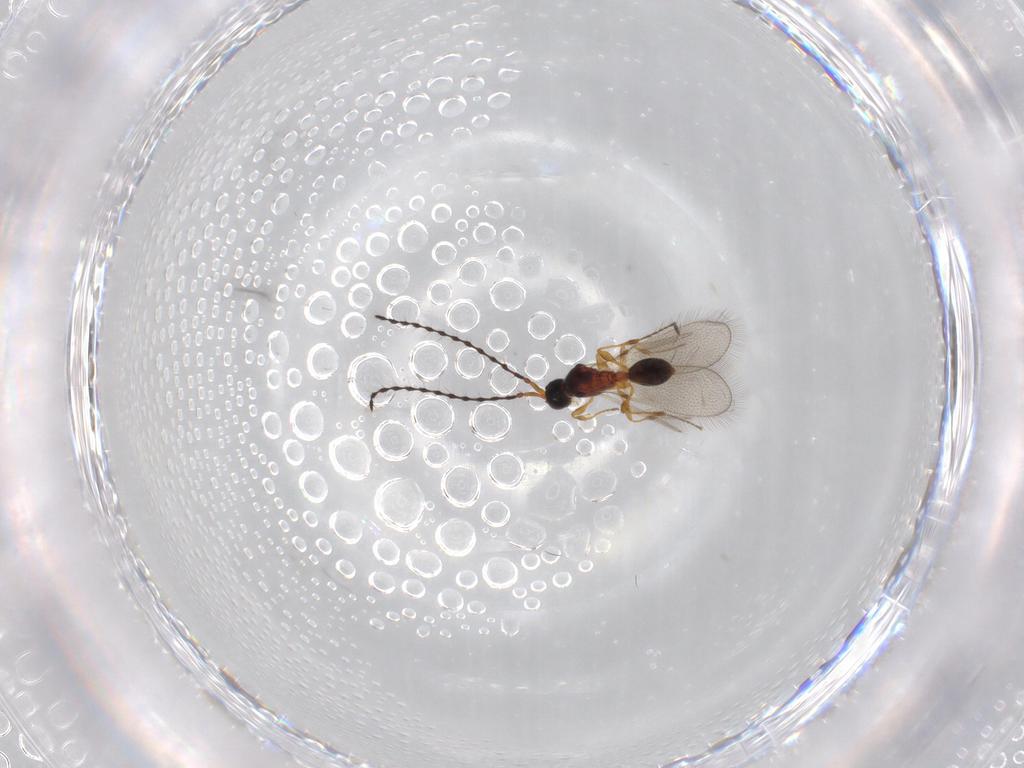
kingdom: Animalia
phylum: Arthropoda
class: Insecta
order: Hymenoptera
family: Diapriidae
